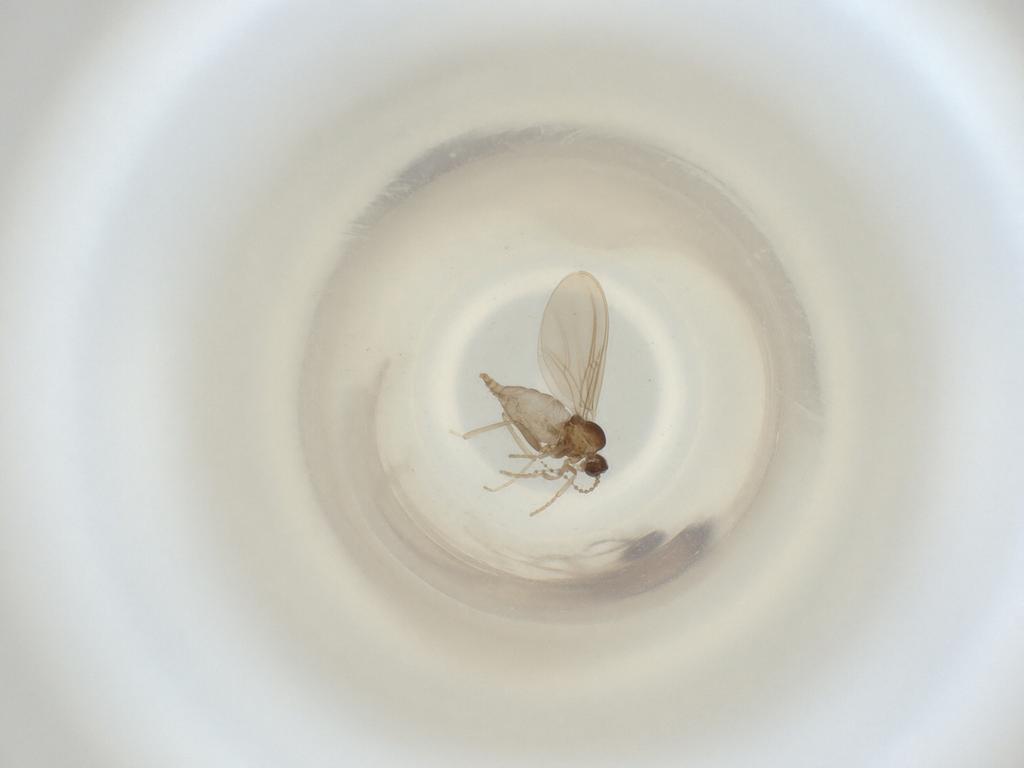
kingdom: Animalia
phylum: Arthropoda
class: Insecta
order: Diptera
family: Cecidomyiidae
